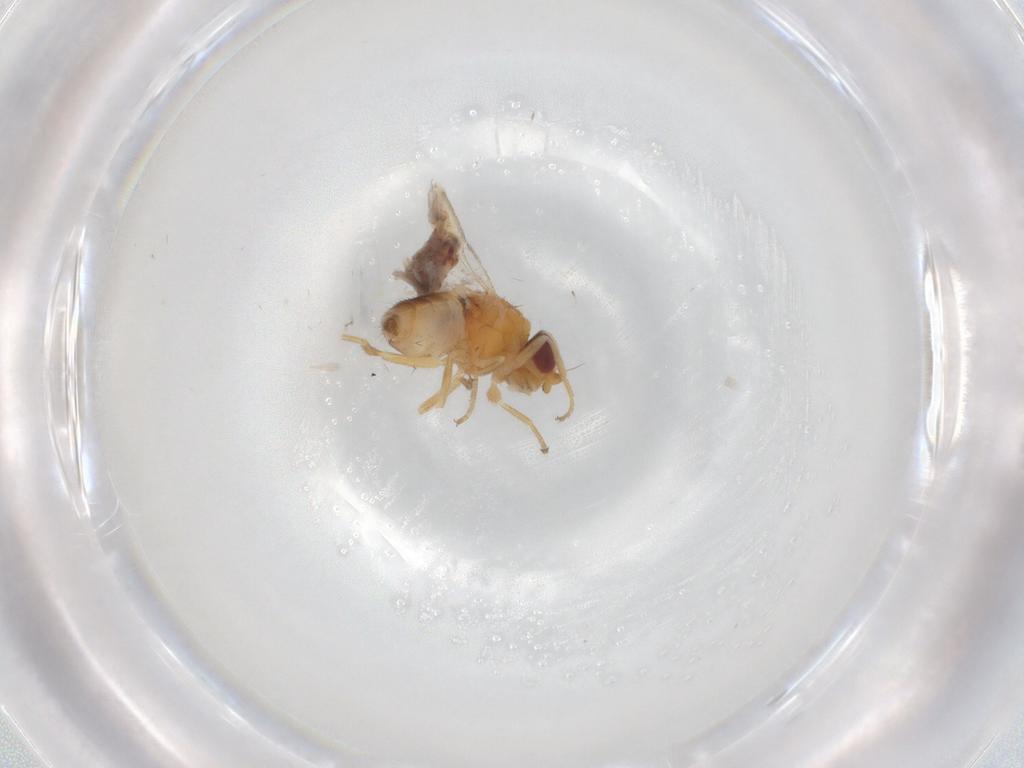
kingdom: Animalia
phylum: Arthropoda
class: Insecta
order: Diptera
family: Cecidomyiidae
